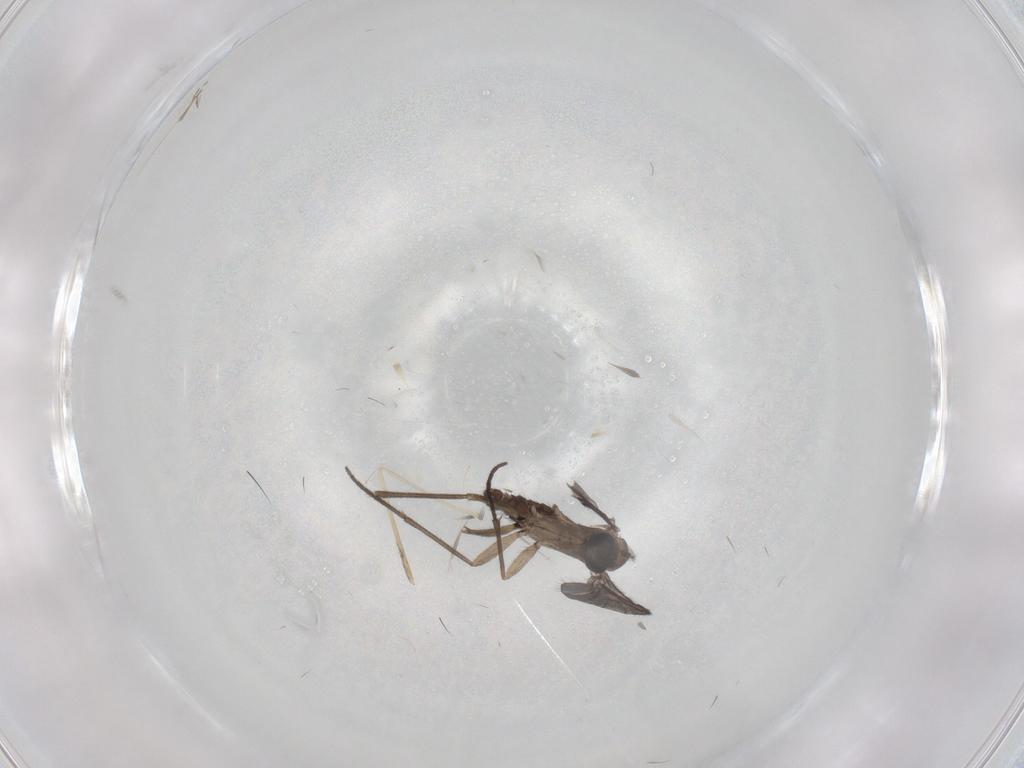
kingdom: Animalia
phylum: Arthropoda
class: Insecta
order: Diptera
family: Sciaridae
